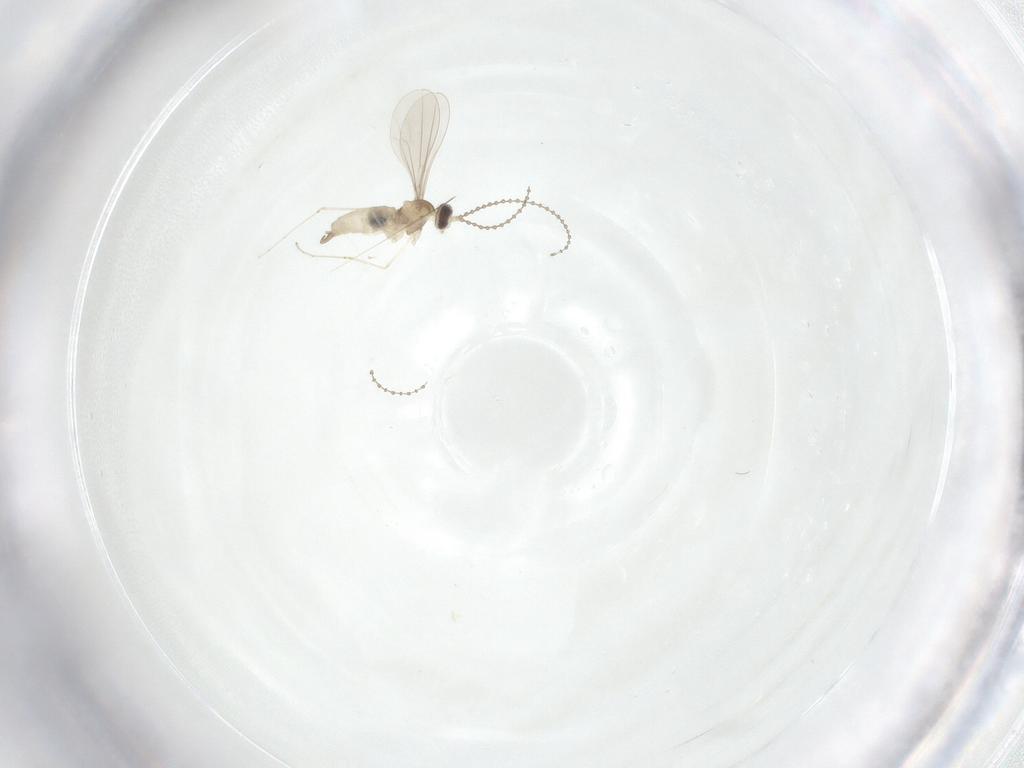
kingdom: Animalia
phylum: Arthropoda
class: Insecta
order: Diptera
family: Cecidomyiidae
